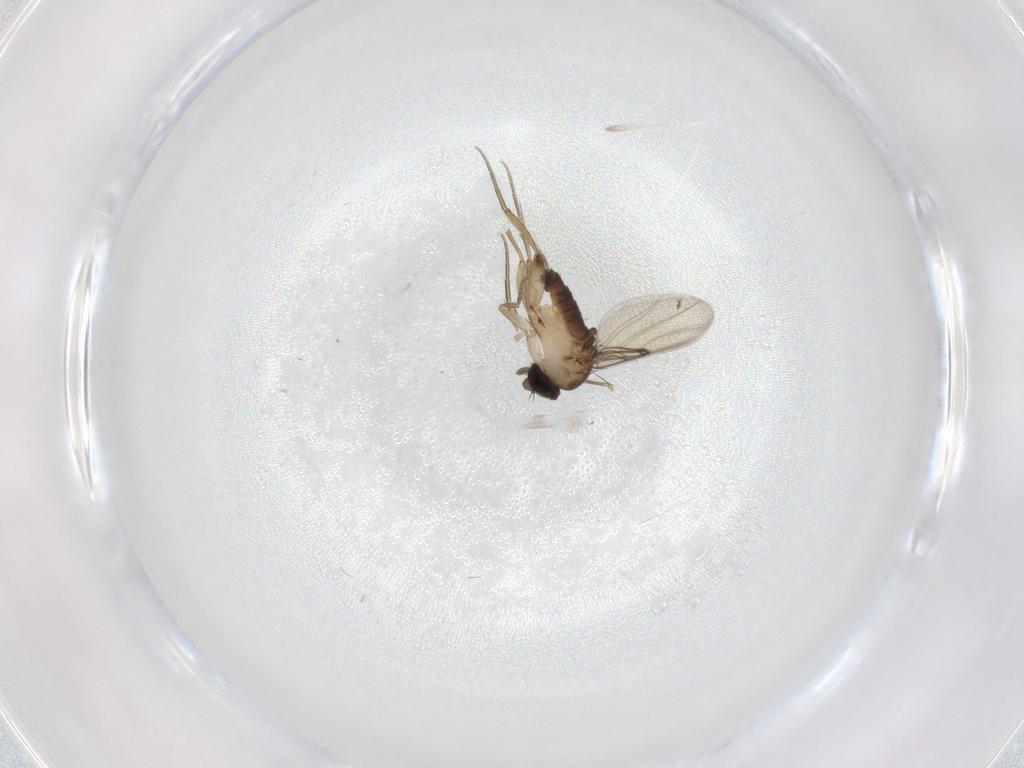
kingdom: Animalia
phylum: Arthropoda
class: Insecta
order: Diptera
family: Phoridae
